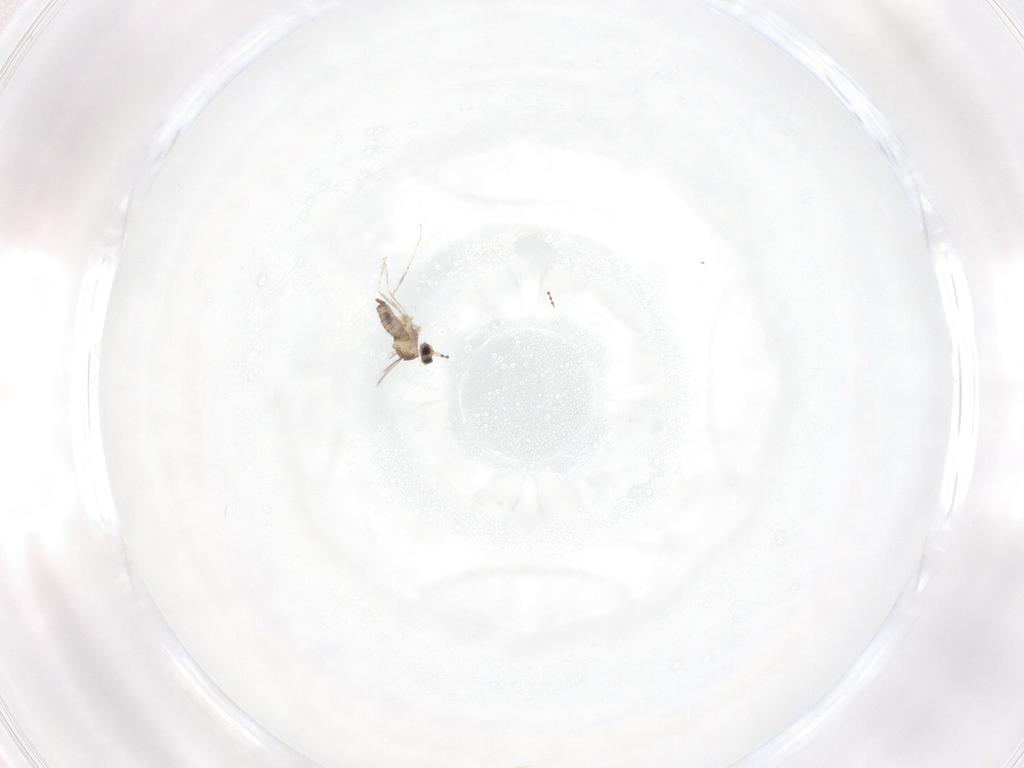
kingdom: Animalia
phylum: Arthropoda
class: Insecta
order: Diptera
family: Cecidomyiidae
